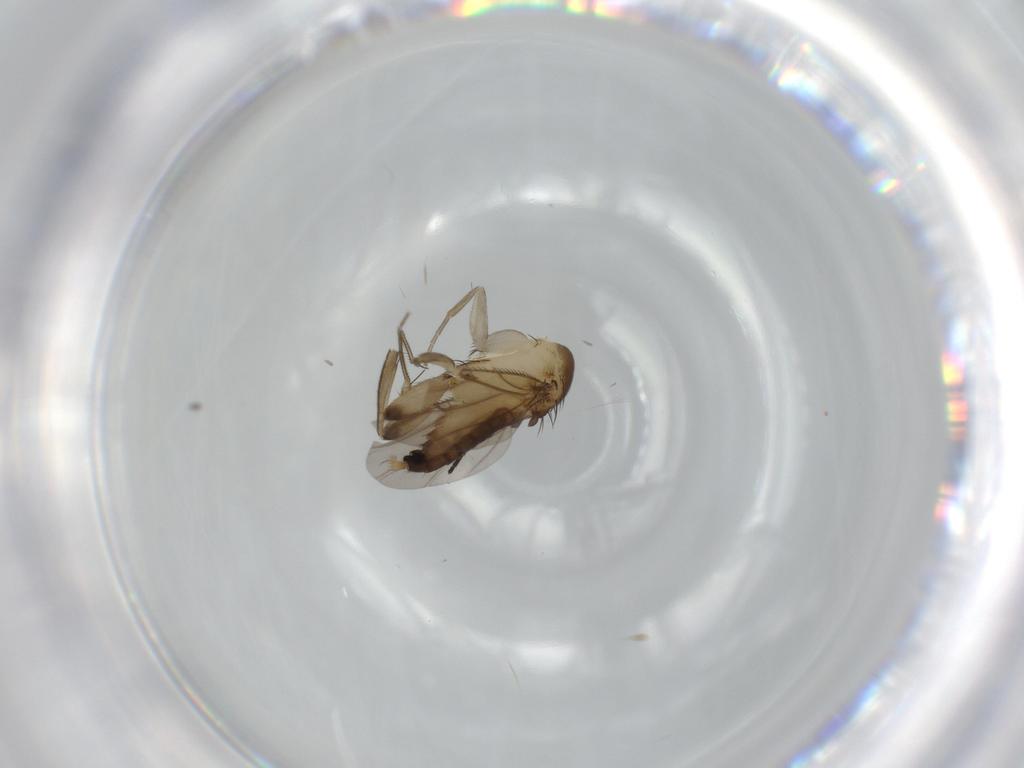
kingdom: Animalia
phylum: Arthropoda
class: Insecta
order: Diptera
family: Phoridae
